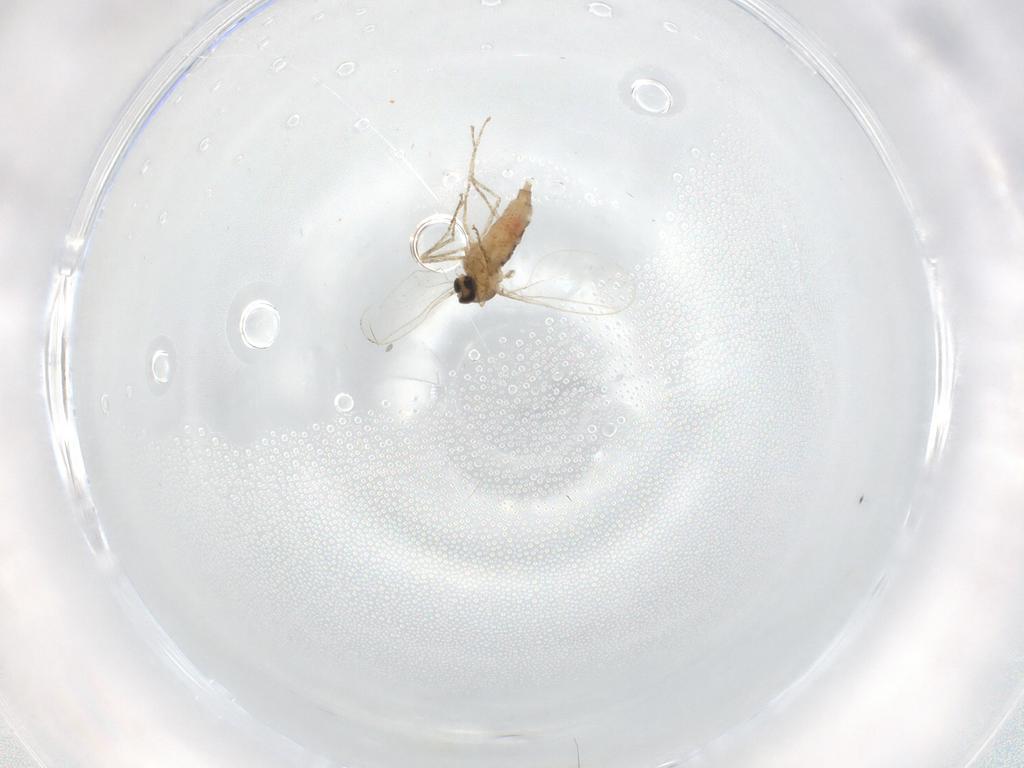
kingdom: Animalia
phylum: Arthropoda
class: Insecta
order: Diptera
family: Cecidomyiidae
